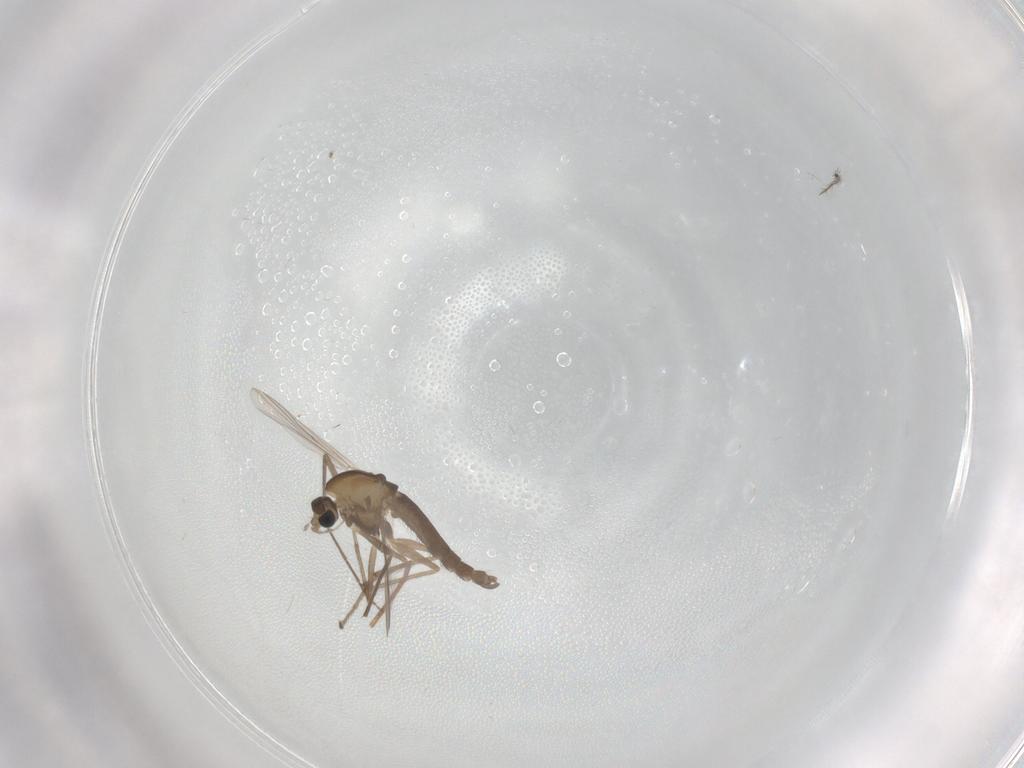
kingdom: Animalia
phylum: Arthropoda
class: Insecta
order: Diptera
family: Chironomidae
